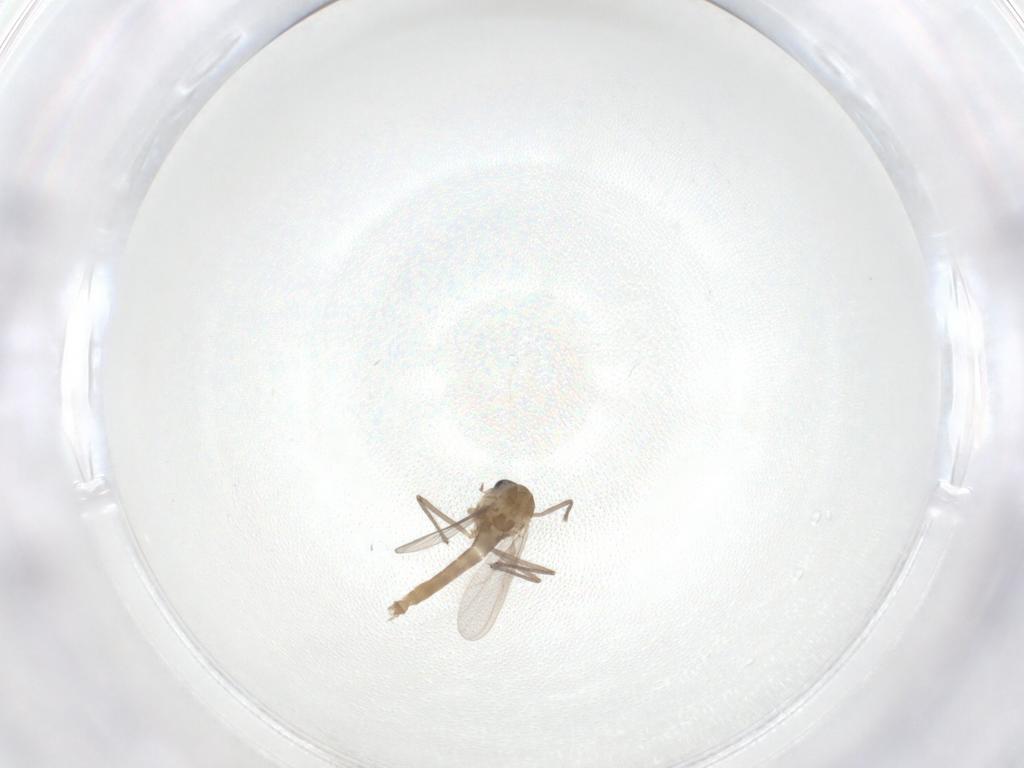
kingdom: Animalia
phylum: Arthropoda
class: Insecta
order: Diptera
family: Chironomidae
